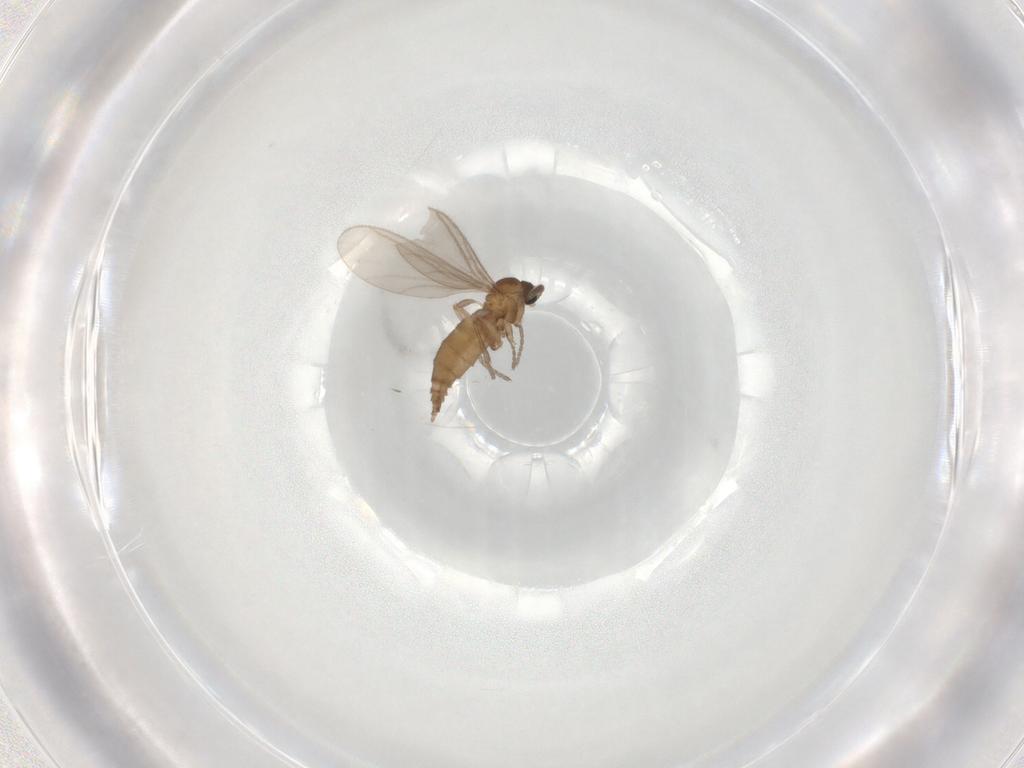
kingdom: Animalia
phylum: Arthropoda
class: Insecta
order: Diptera
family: Sciaridae
